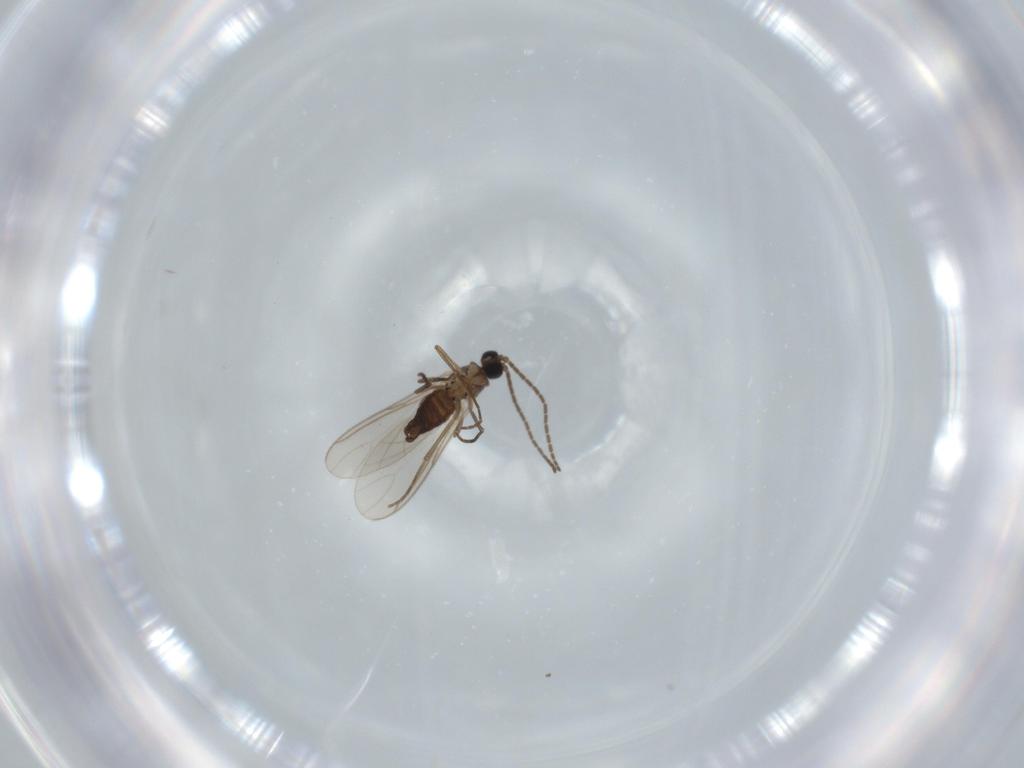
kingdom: Animalia
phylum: Arthropoda
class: Insecta
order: Diptera
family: Sciaridae
